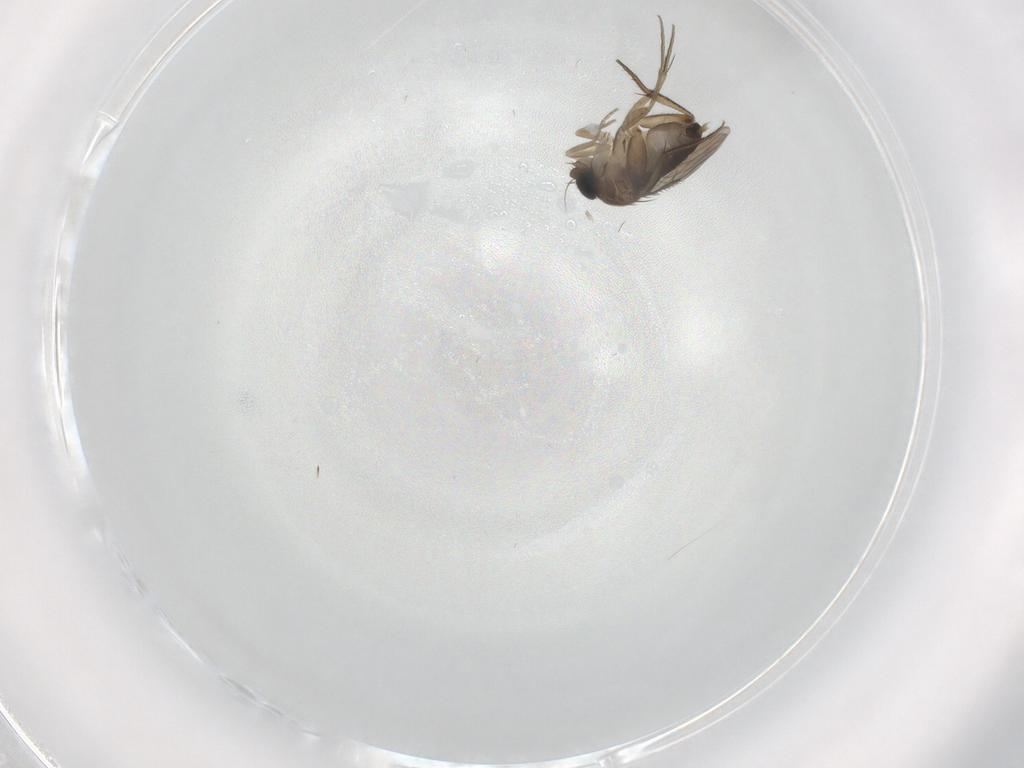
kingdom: Animalia
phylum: Arthropoda
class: Insecta
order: Diptera
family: Phoridae
